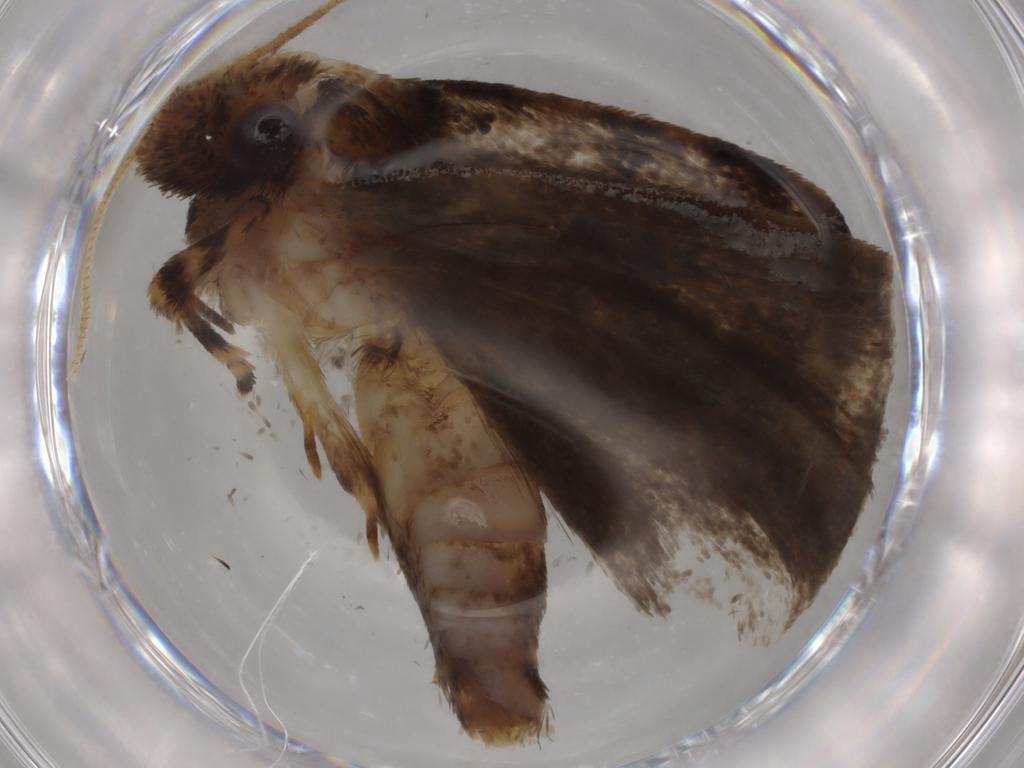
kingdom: Animalia
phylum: Arthropoda
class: Insecta
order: Lepidoptera
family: Tineidae
